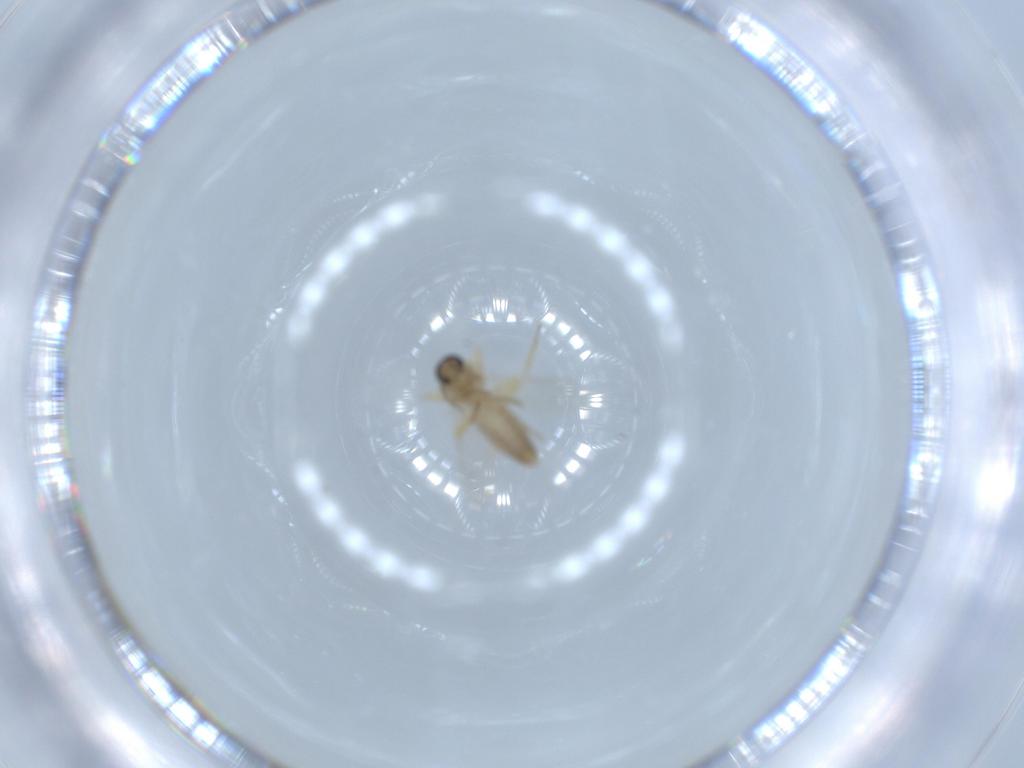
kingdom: Animalia
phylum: Arthropoda
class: Insecta
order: Diptera
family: Ceratopogonidae
